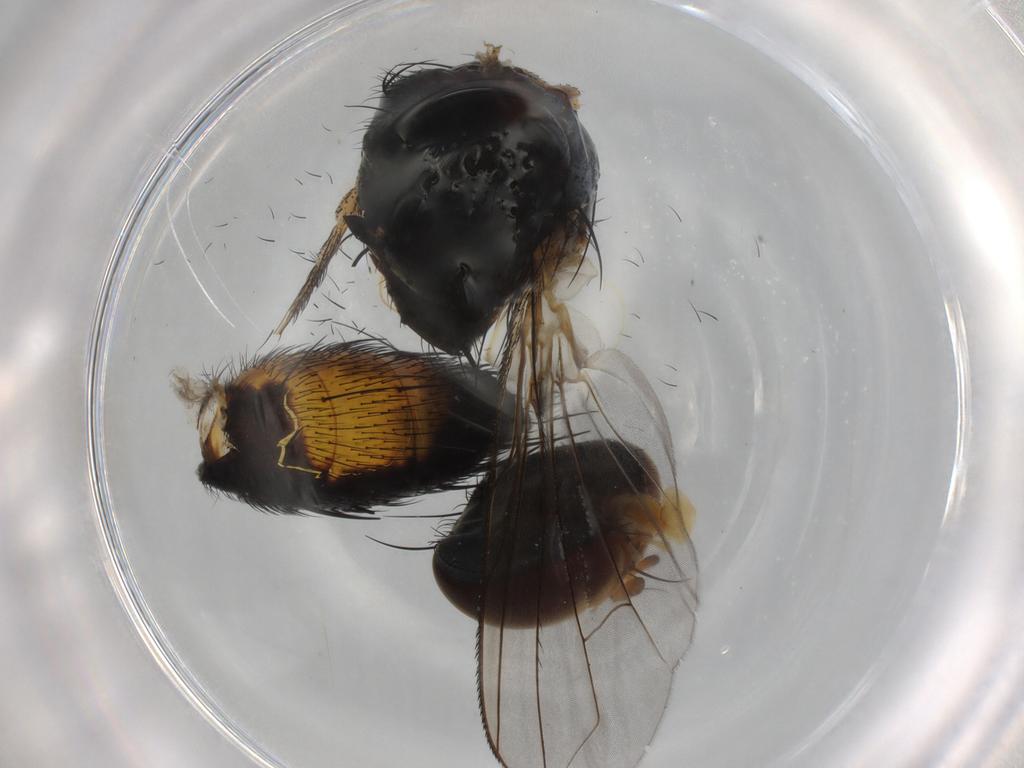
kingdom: Animalia
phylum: Arthropoda
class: Insecta
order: Diptera
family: Tachinidae
